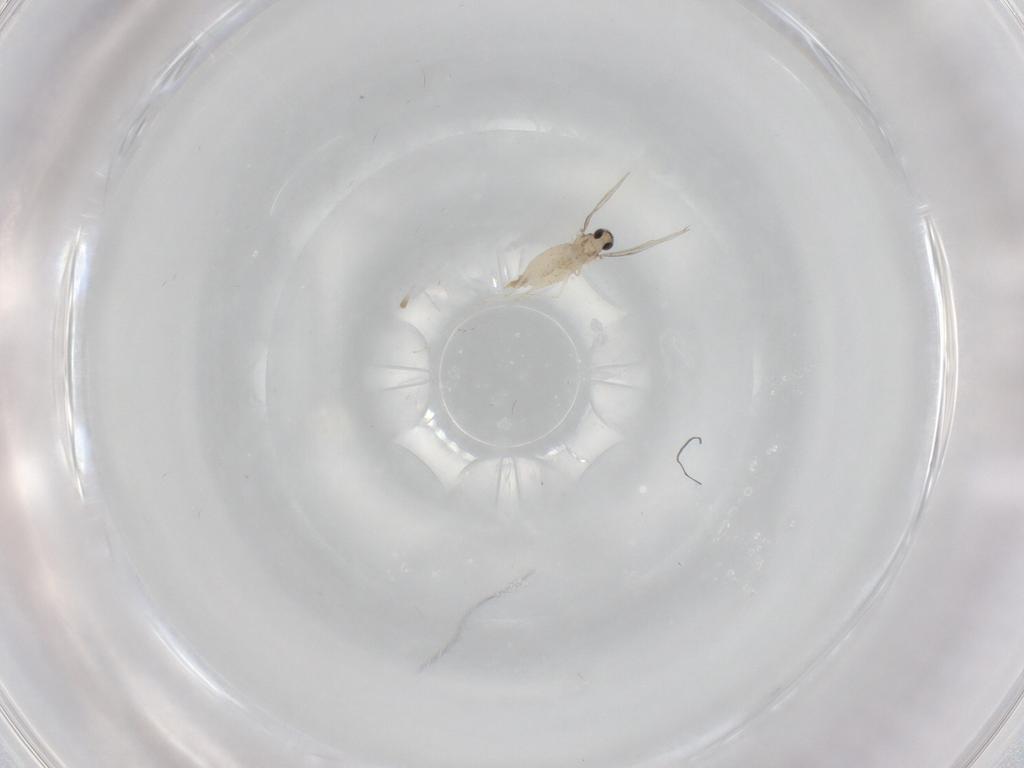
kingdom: Animalia
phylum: Arthropoda
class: Insecta
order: Diptera
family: Cecidomyiidae
